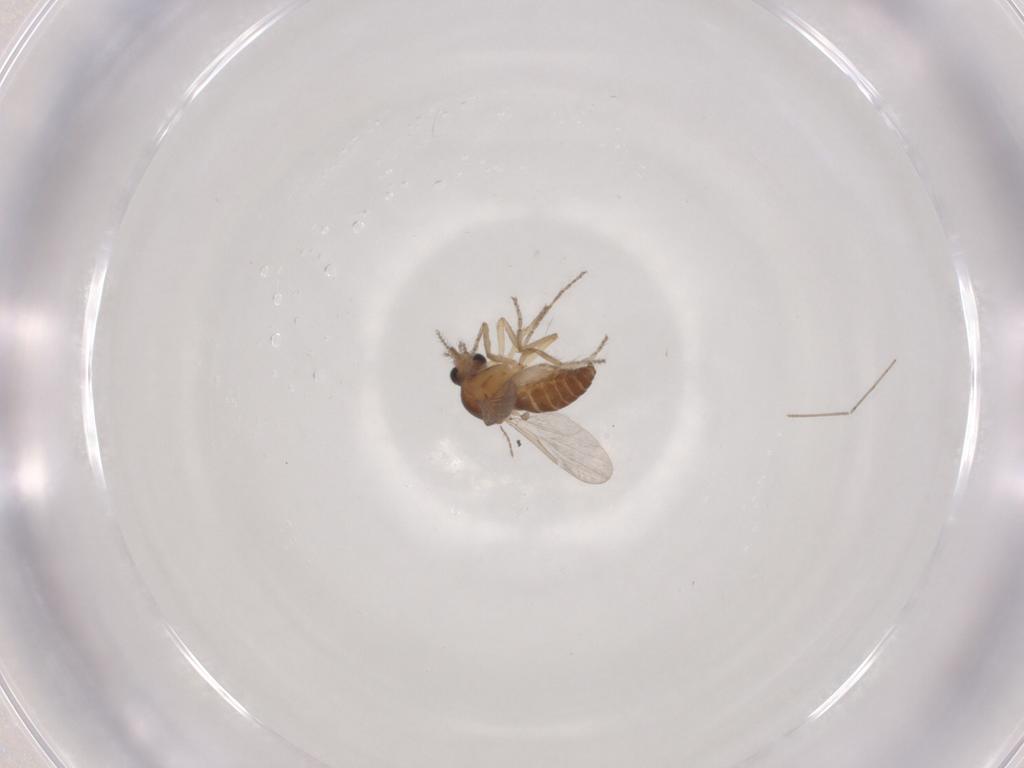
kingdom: Animalia
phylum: Arthropoda
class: Insecta
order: Diptera
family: Ceratopogonidae
